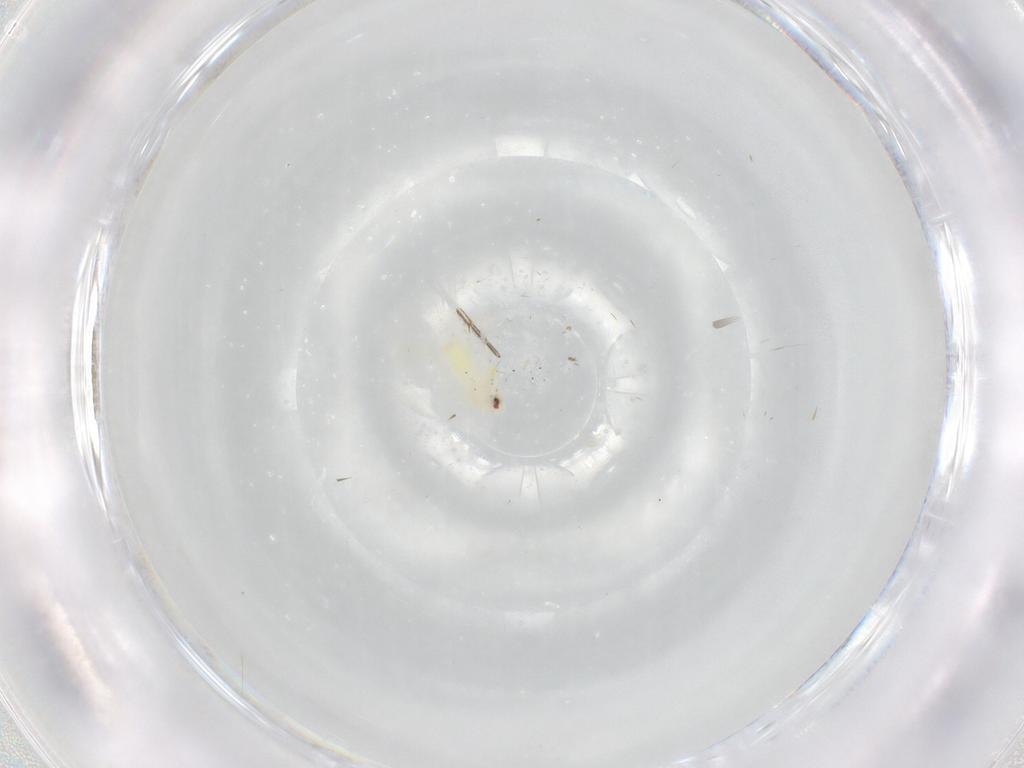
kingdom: Animalia
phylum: Arthropoda
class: Insecta
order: Hemiptera
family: Aleyrodidae
